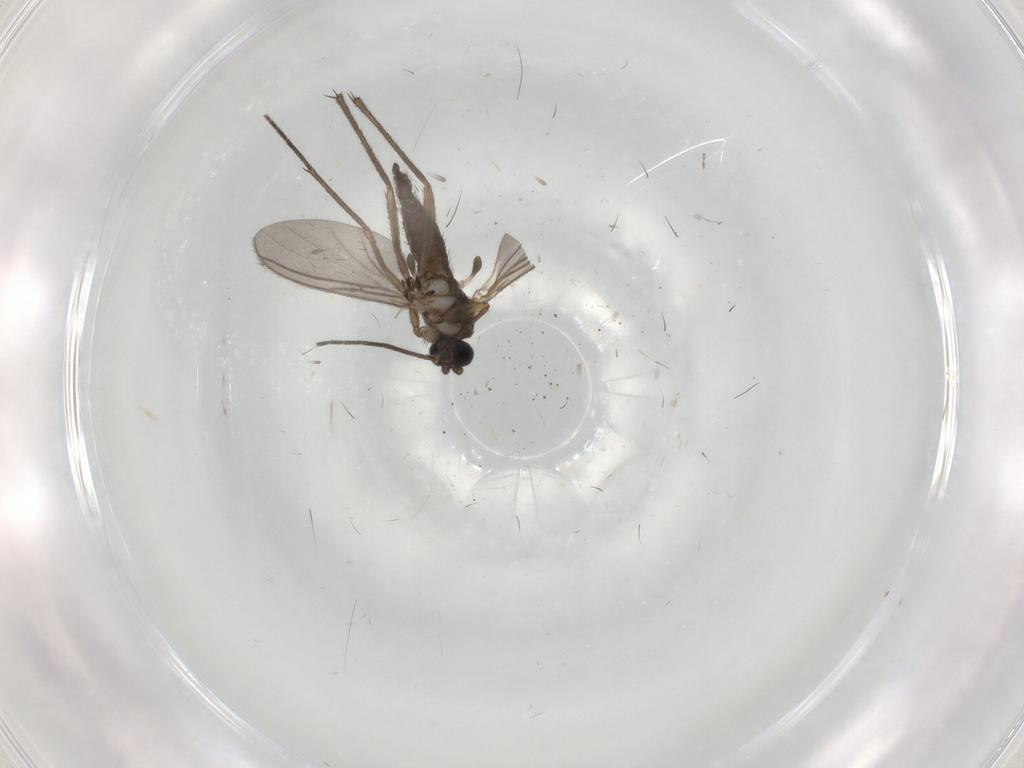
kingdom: Animalia
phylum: Arthropoda
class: Insecta
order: Diptera
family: Sciaridae
